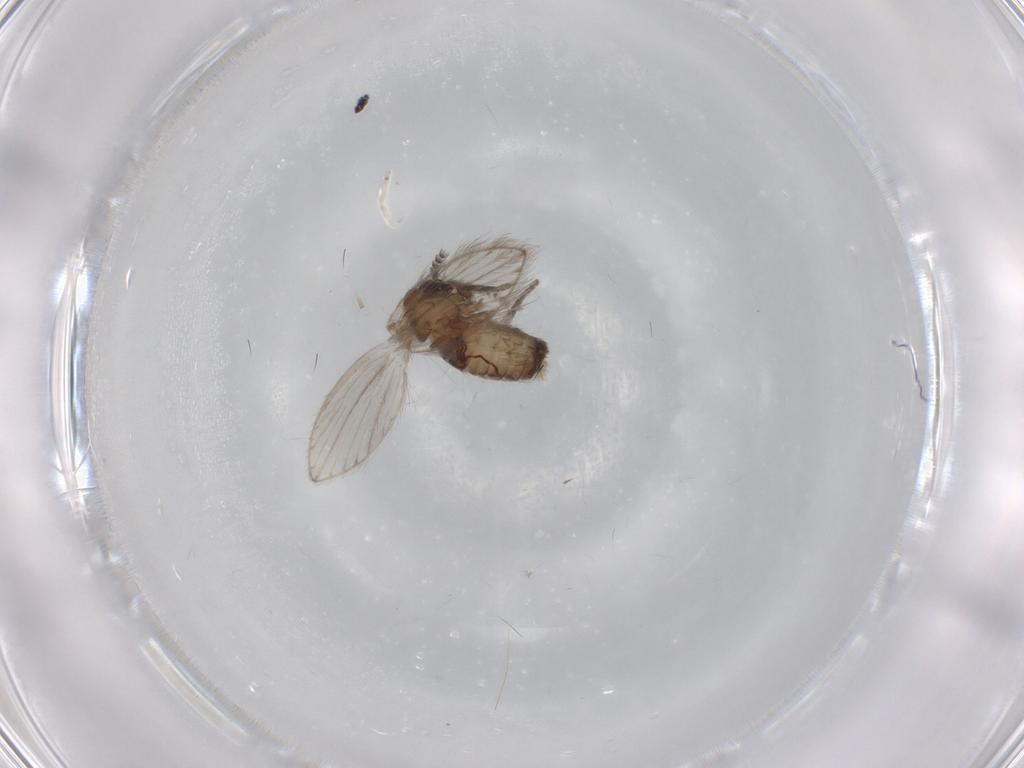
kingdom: Animalia
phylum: Arthropoda
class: Insecta
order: Diptera
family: Psychodidae
